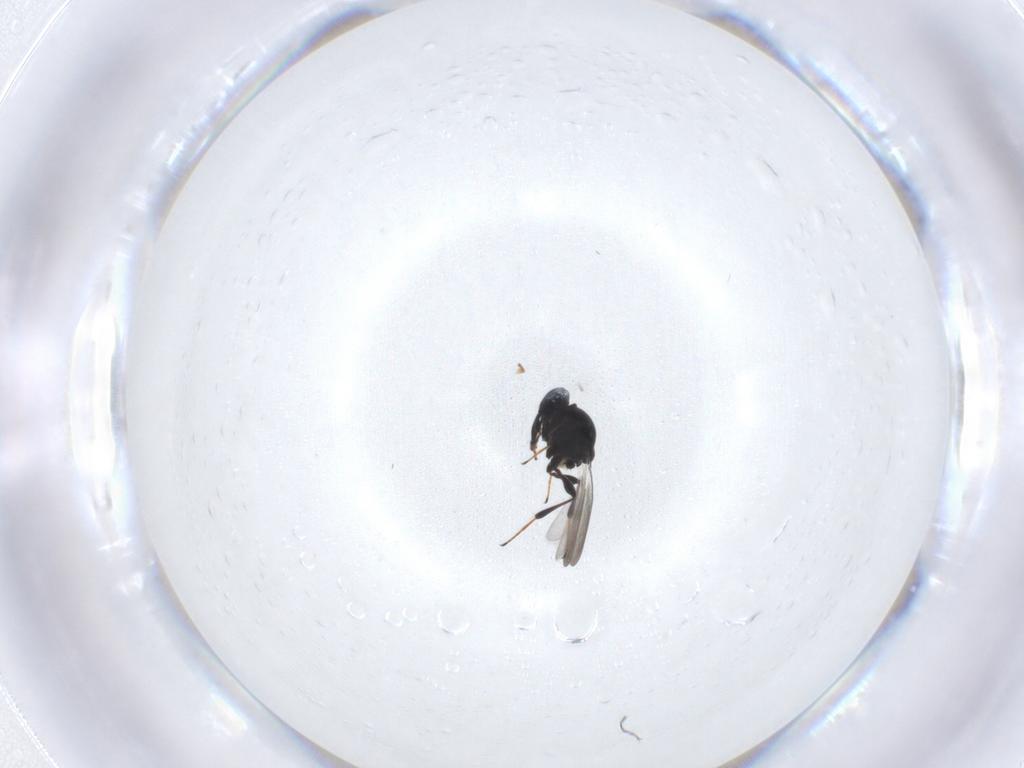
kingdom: Animalia
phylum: Arthropoda
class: Insecta
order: Hymenoptera
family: Platygastridae
